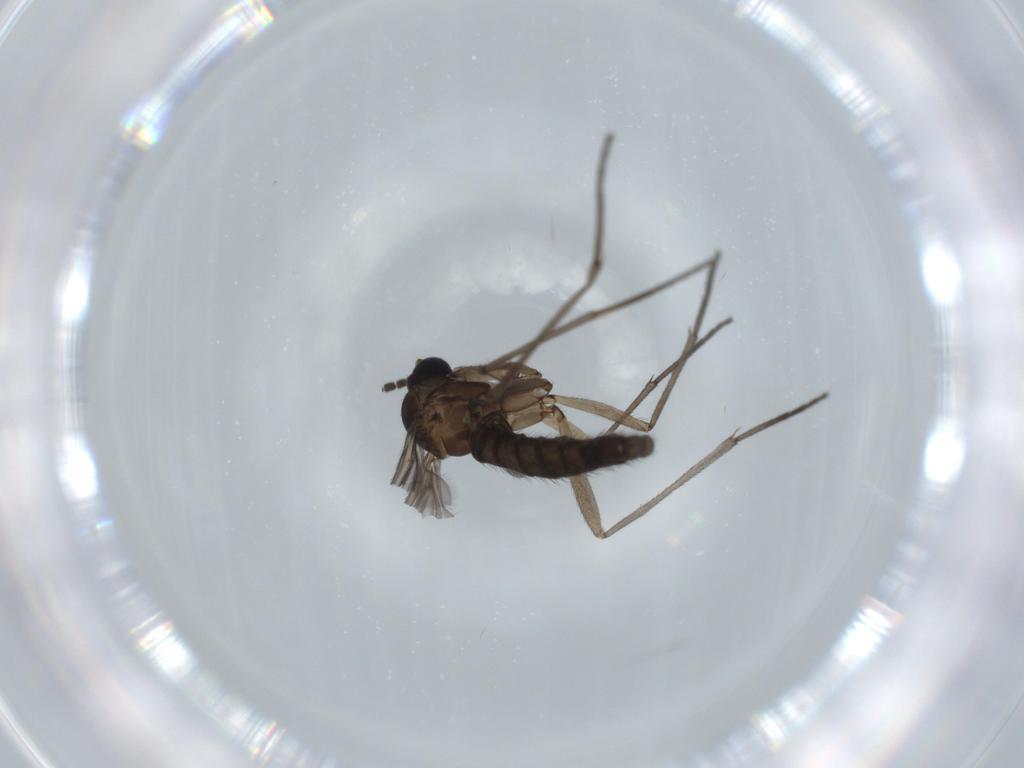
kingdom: Animalia
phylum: Arthropoda
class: Insecta
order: Diptera
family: Sciaridae
